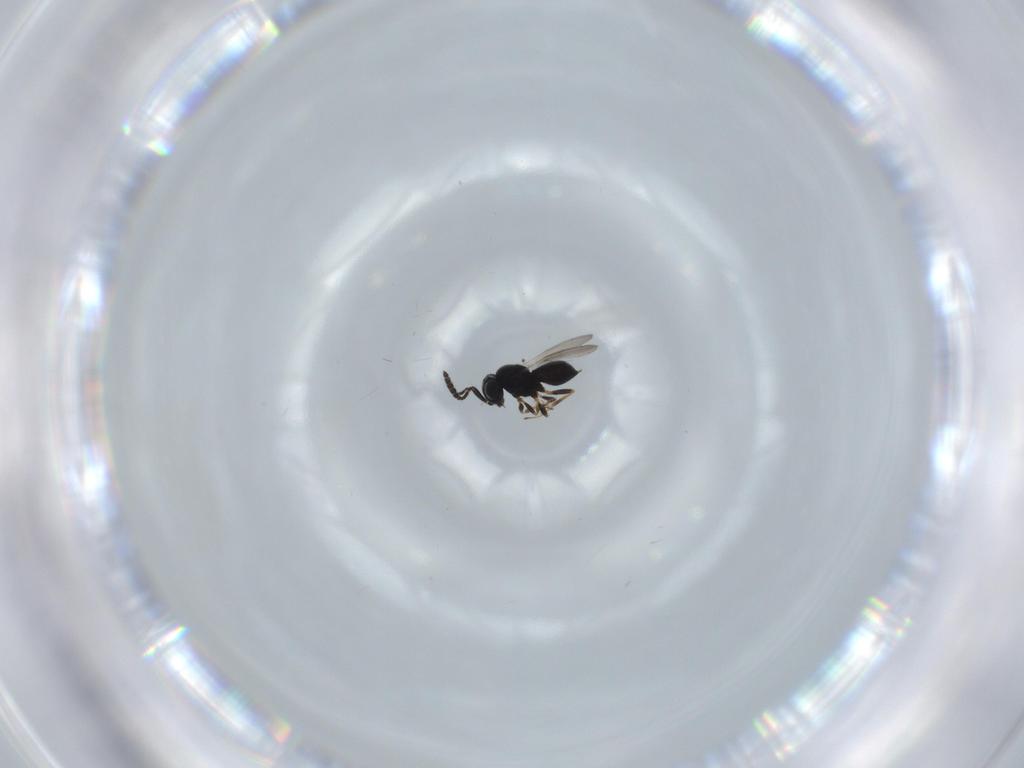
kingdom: Animalia
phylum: Arthropoda
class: Insecta
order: Hymenoptera
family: Scelionidae
